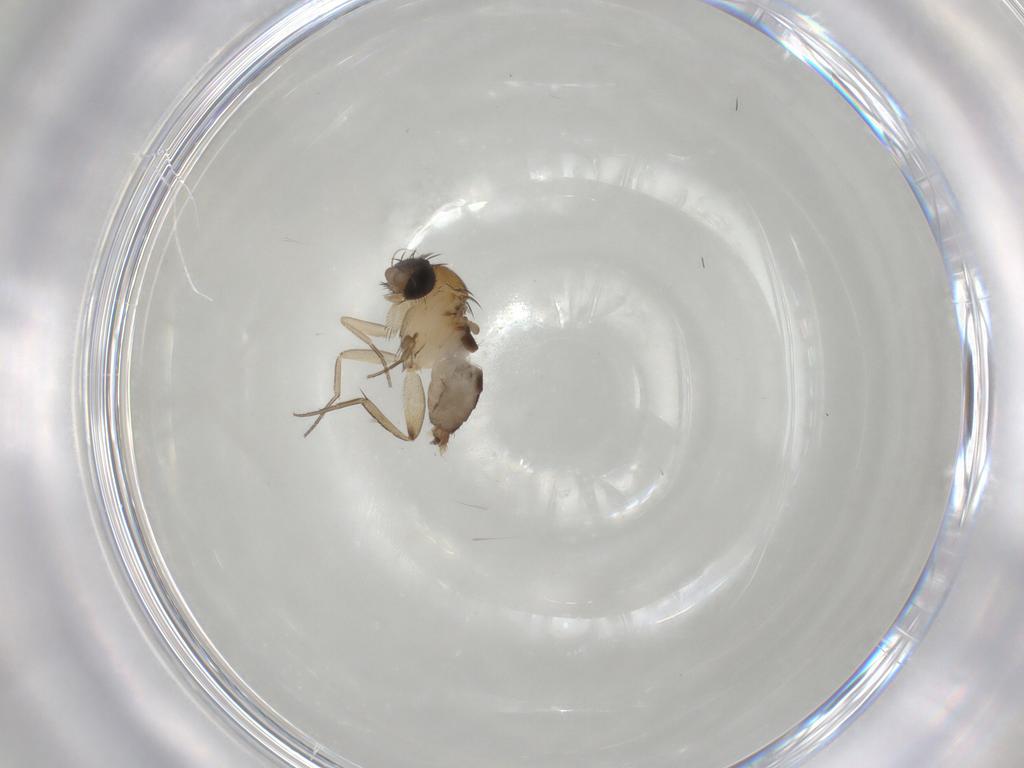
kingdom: Animalia
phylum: Arthropoda
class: Insecta
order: Diptera
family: Phoridae
